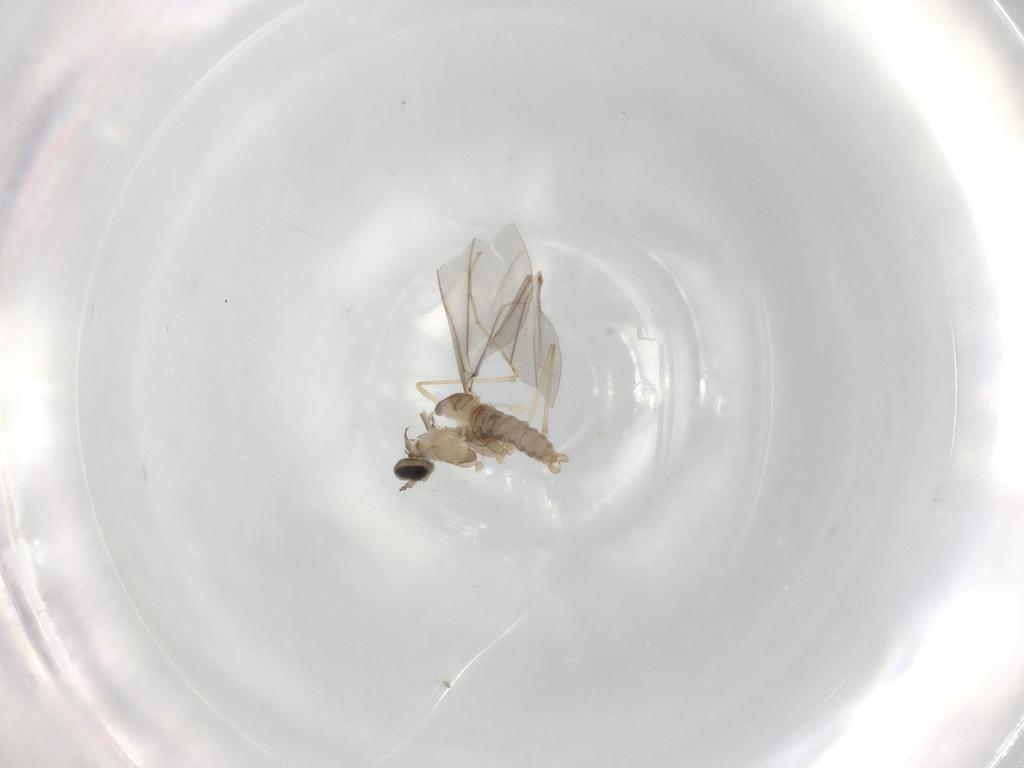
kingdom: Animalia
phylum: Arthropoda
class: Insecta
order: Diptera
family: Cecidomyiidae
